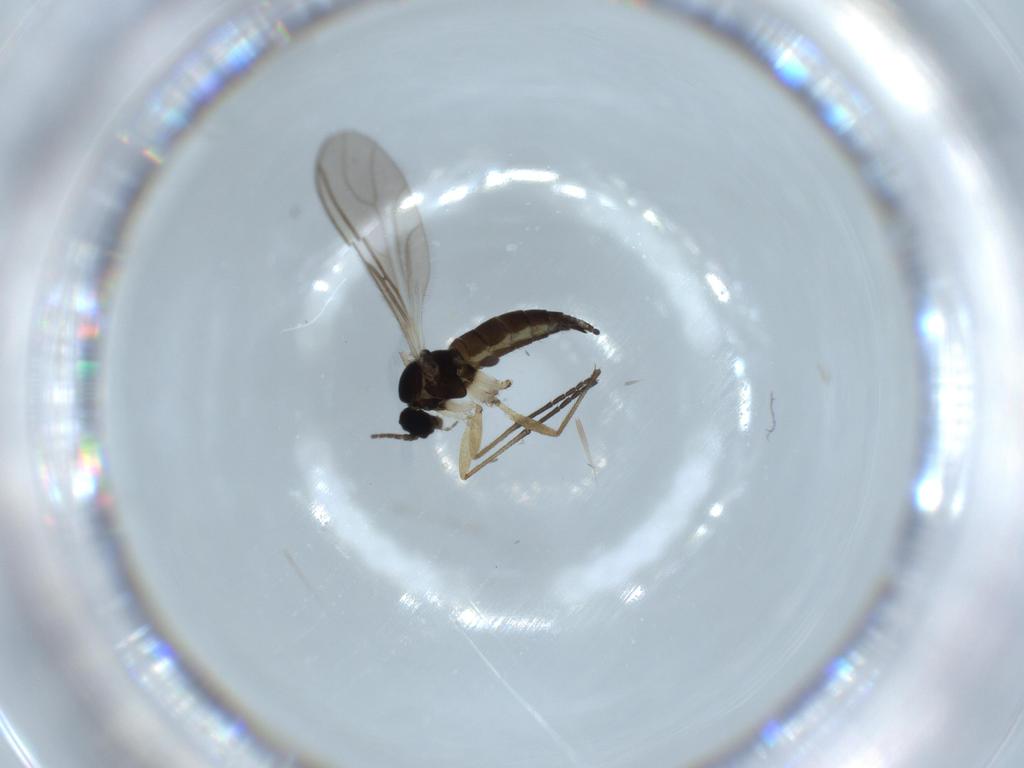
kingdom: Animalia
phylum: Arthropoda
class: Insecta
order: Diptera
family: Sciaridae
